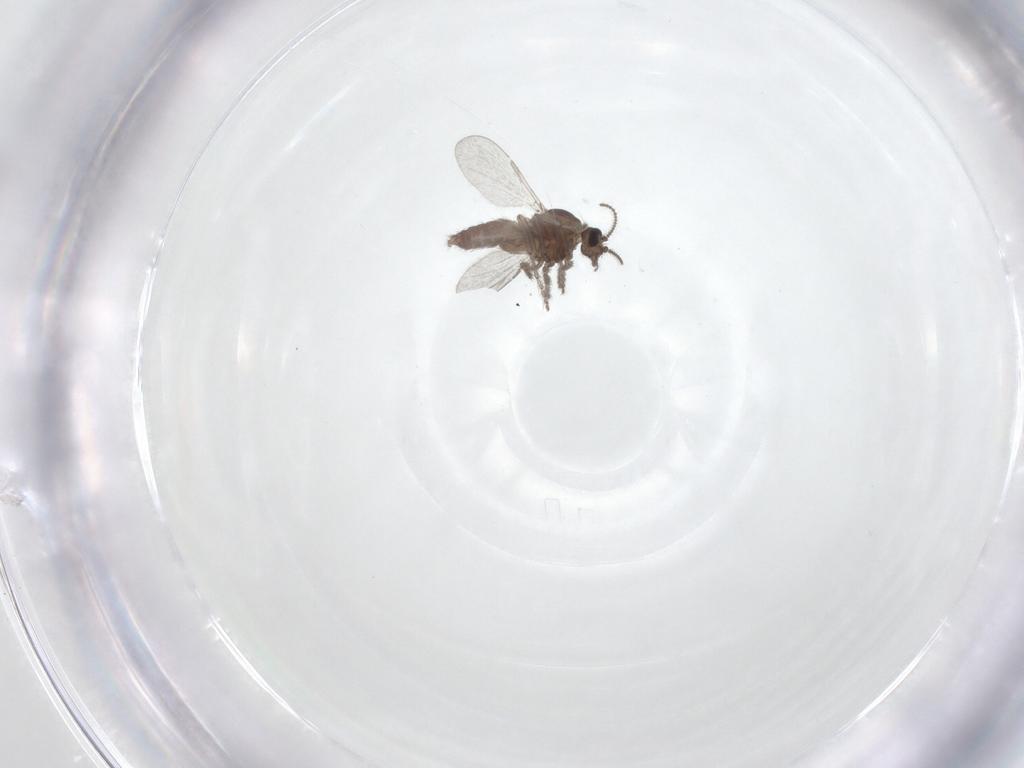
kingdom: Animalia
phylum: Arthropoda
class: Insecta
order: Diptera
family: Ceratopogonidae
